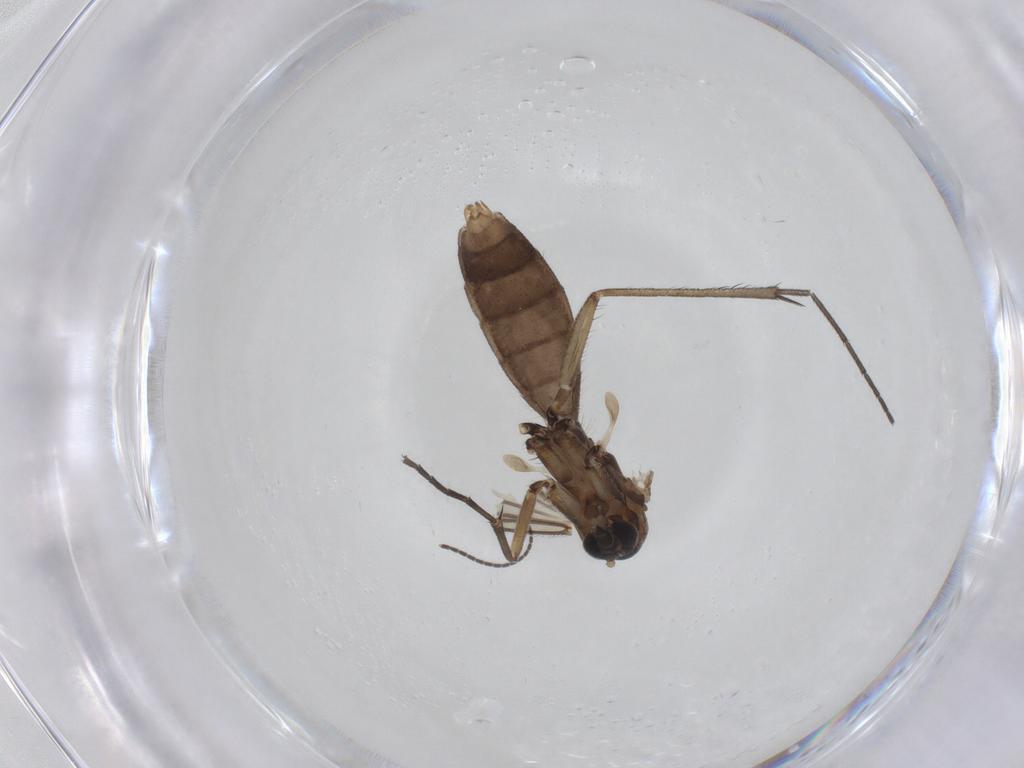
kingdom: Animalia
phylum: Arthropoda
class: Insecta
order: Diptera
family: Mycetophilidae
